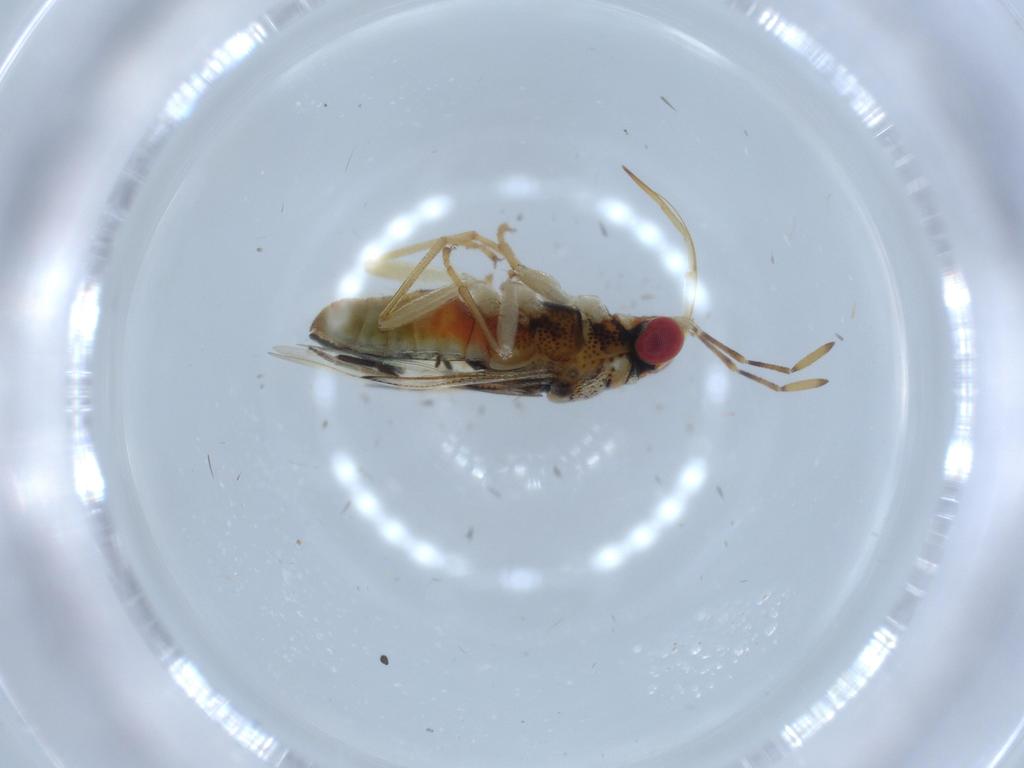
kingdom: Animalia
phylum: Arthropoda
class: Insecta
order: Hemiptera
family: Geocoridae
